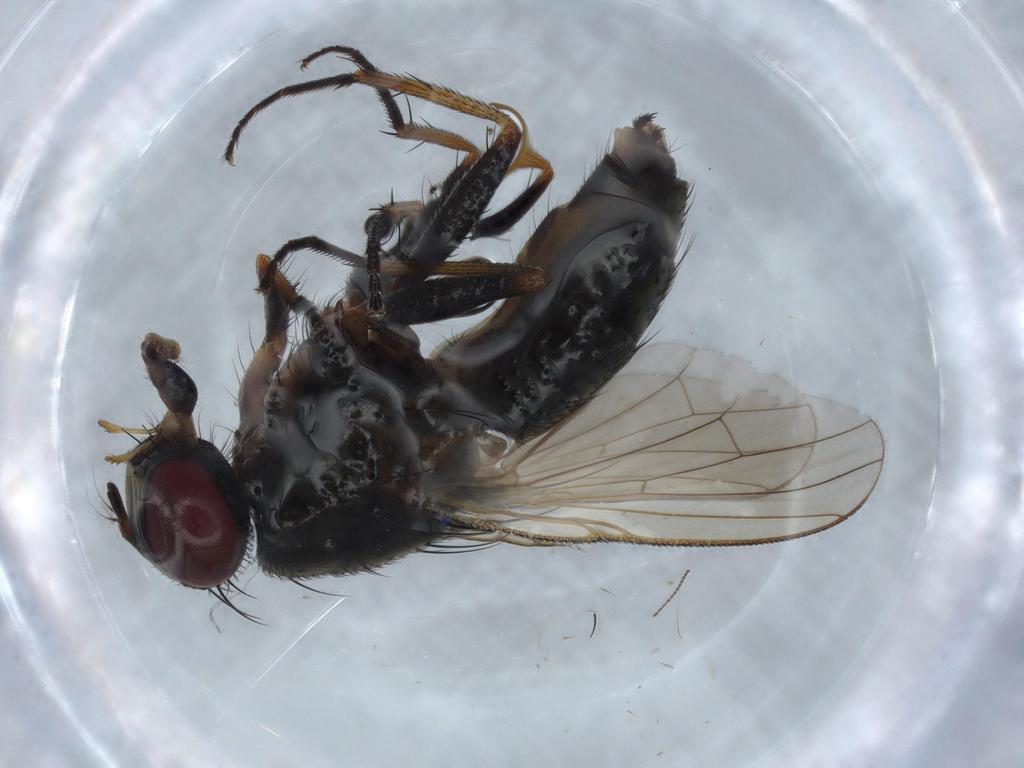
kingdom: Animalia
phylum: Arthropoda
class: Insecta
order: Diptera
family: Muscidae
